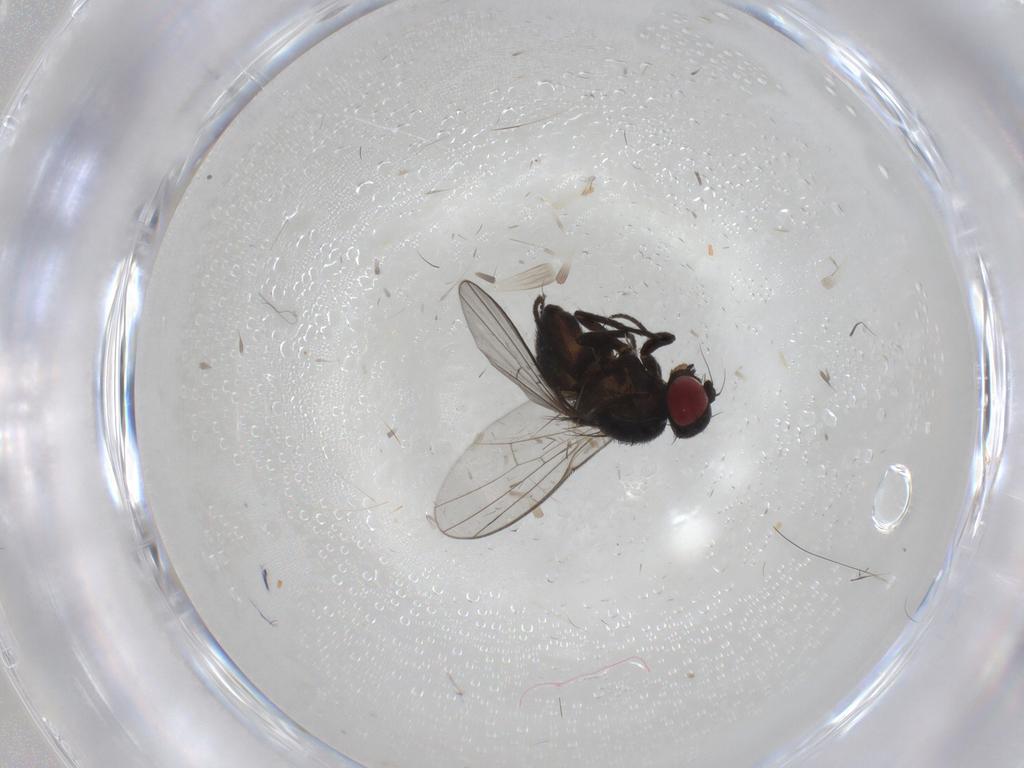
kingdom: Animalia
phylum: Arthropoda
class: Insecta
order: Diptera
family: Agromyzidae
